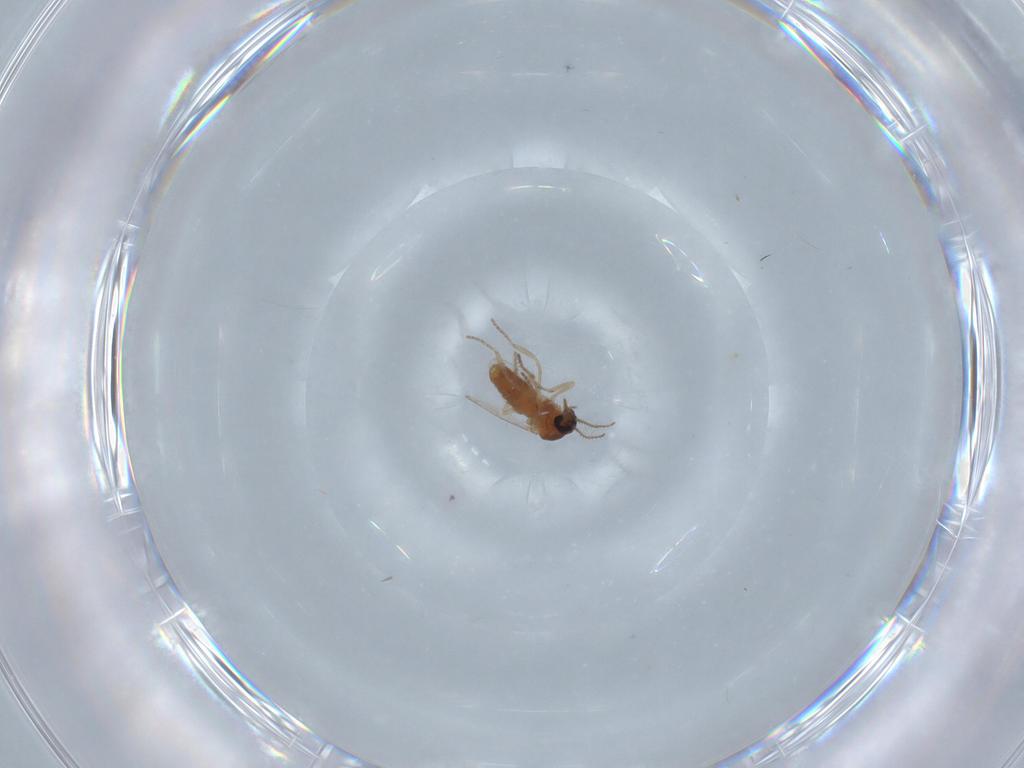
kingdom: Animalia
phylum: Arthropoda
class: Insecta
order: Diptera
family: Ceratopogonidae
